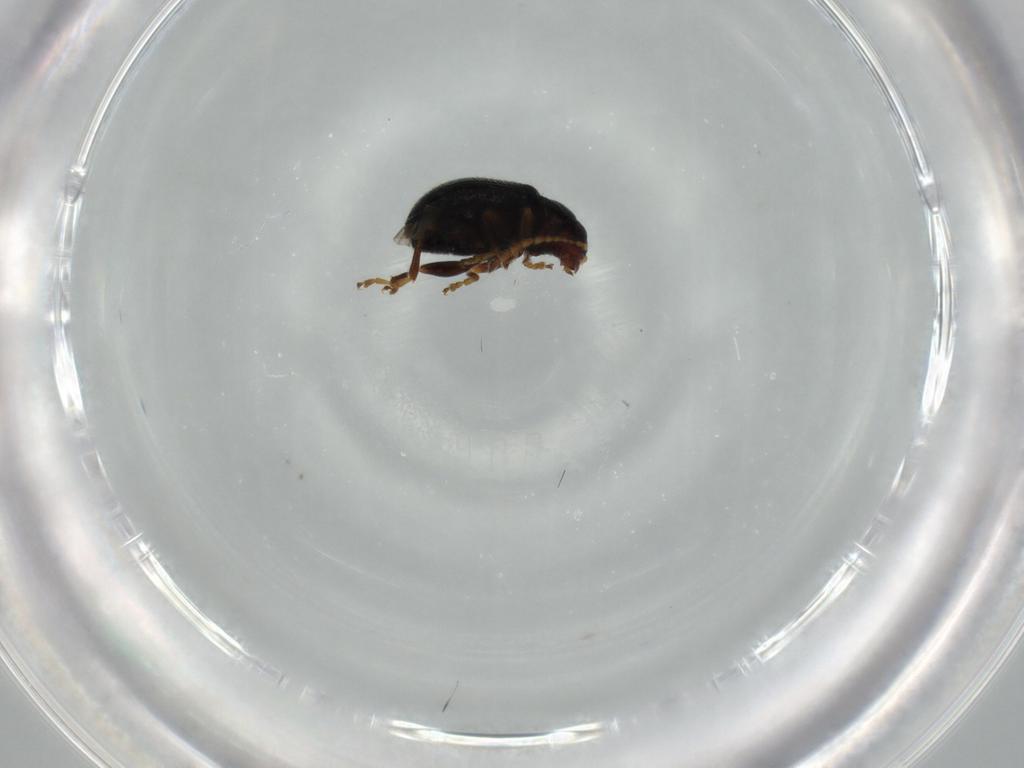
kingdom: Animalia
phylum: Arthropoda
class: Insecta
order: Coleoptera
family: Chrysomelidae
